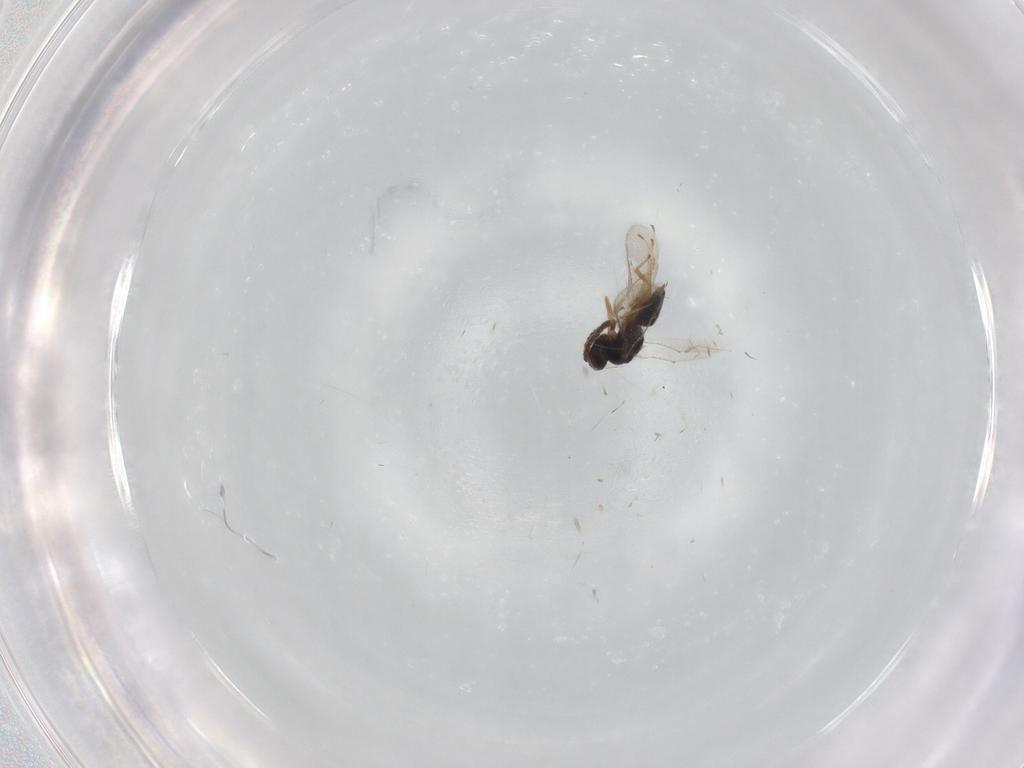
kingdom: Animalia
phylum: Arthropoda
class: Insecta
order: Hymenoptera
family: Tetracampidae
